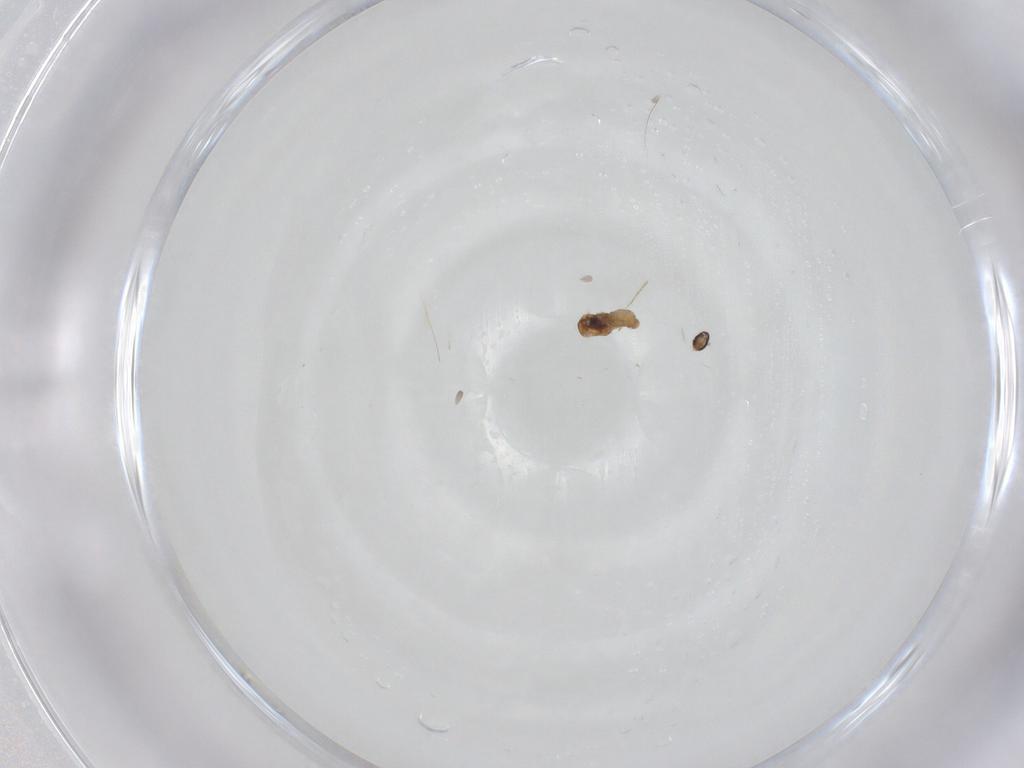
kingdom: Animalia
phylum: Arthropoda
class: Insecta
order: Diptera
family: Cecidomyiidae
